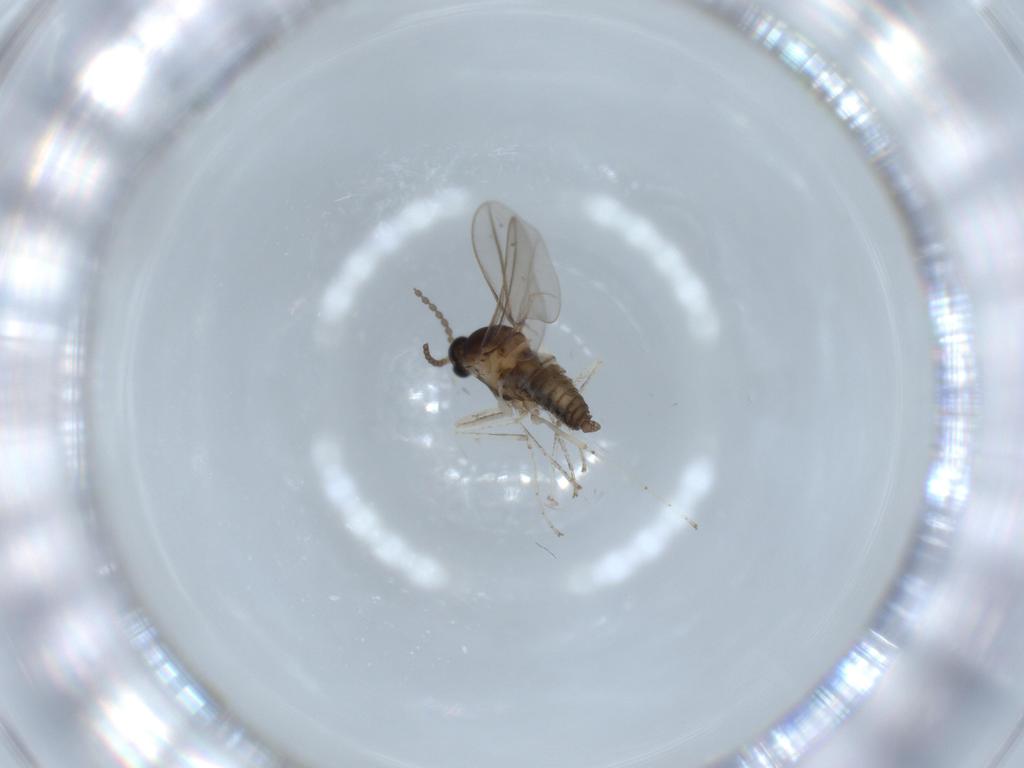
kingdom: Animalia
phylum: Arthropoda
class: Insecta
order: Diptera
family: Cecidomyiidae
